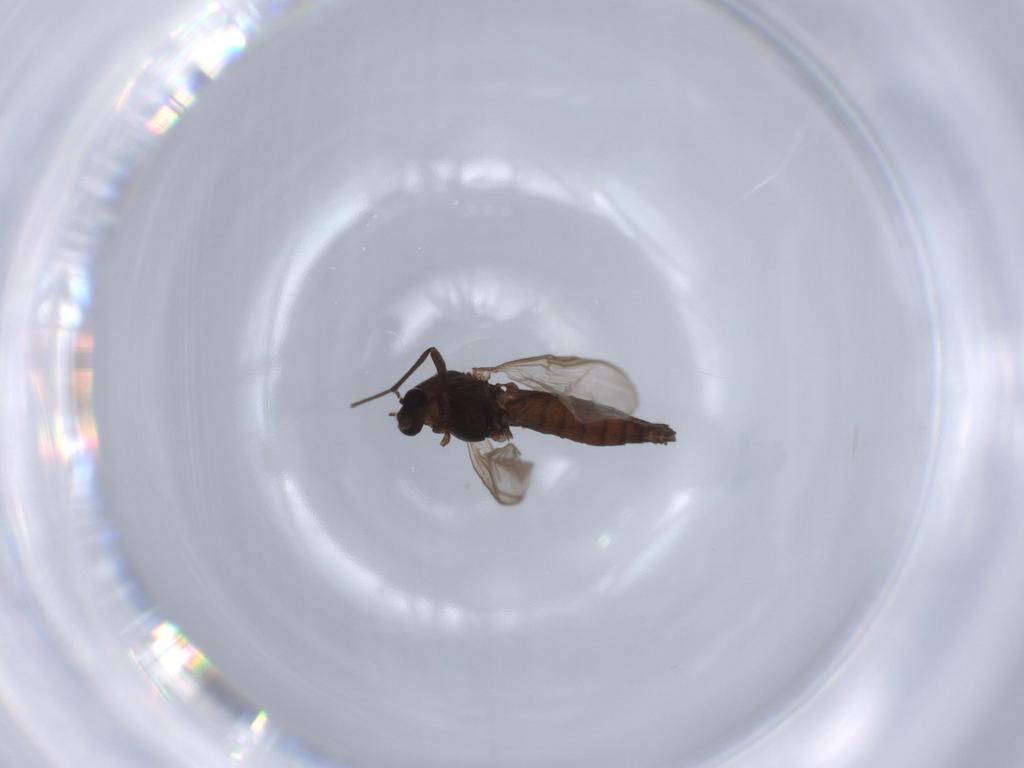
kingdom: Animalia
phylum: Arthropoda
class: Insecta
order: Diptera
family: Chironomidae
